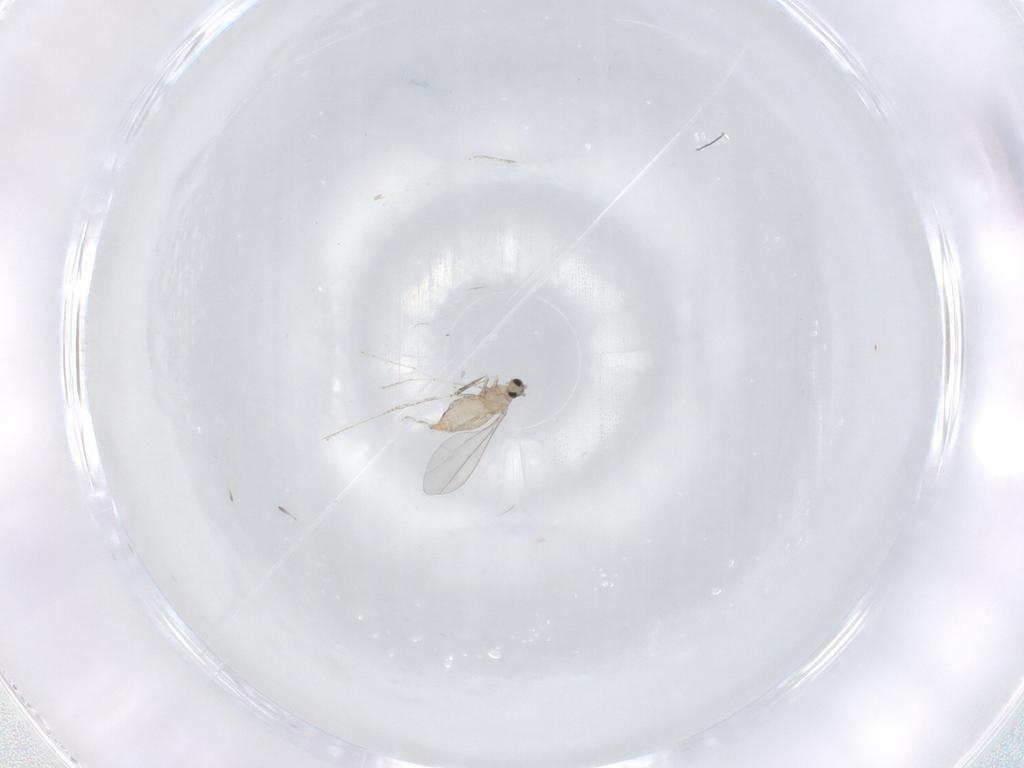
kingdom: Animalia
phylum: Arthropoda
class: Insecta
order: Diptera
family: Cecidomyiidae
